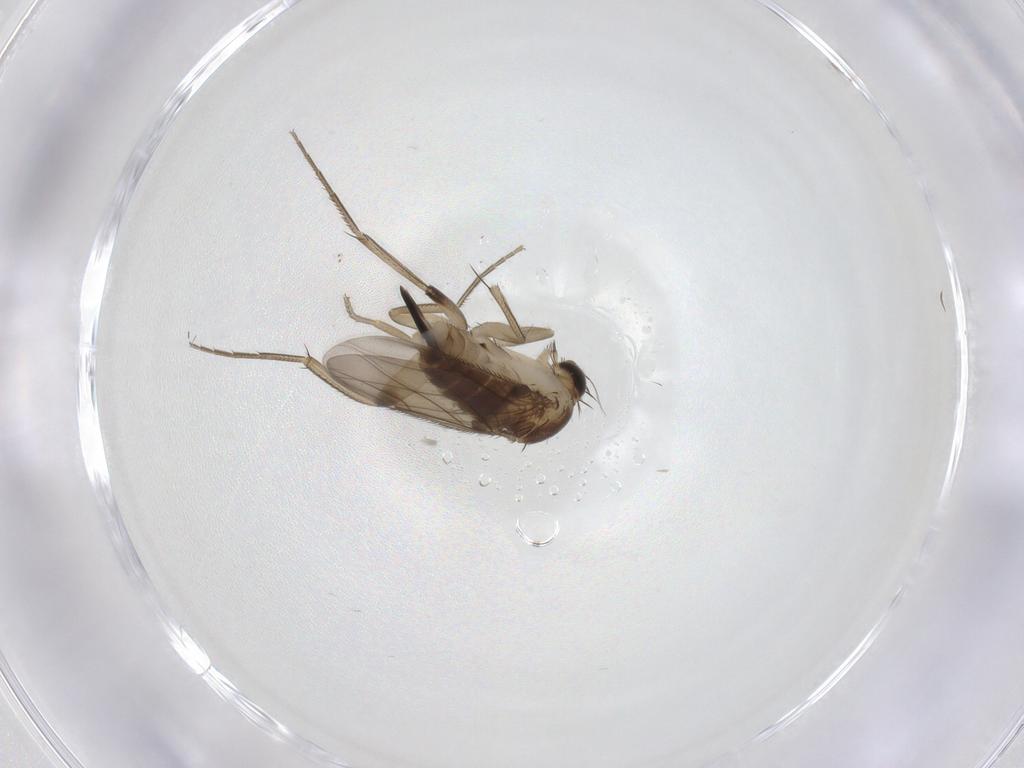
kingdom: Animalia
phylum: Arthropoda
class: Insecta
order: Diptera
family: Phoridae
